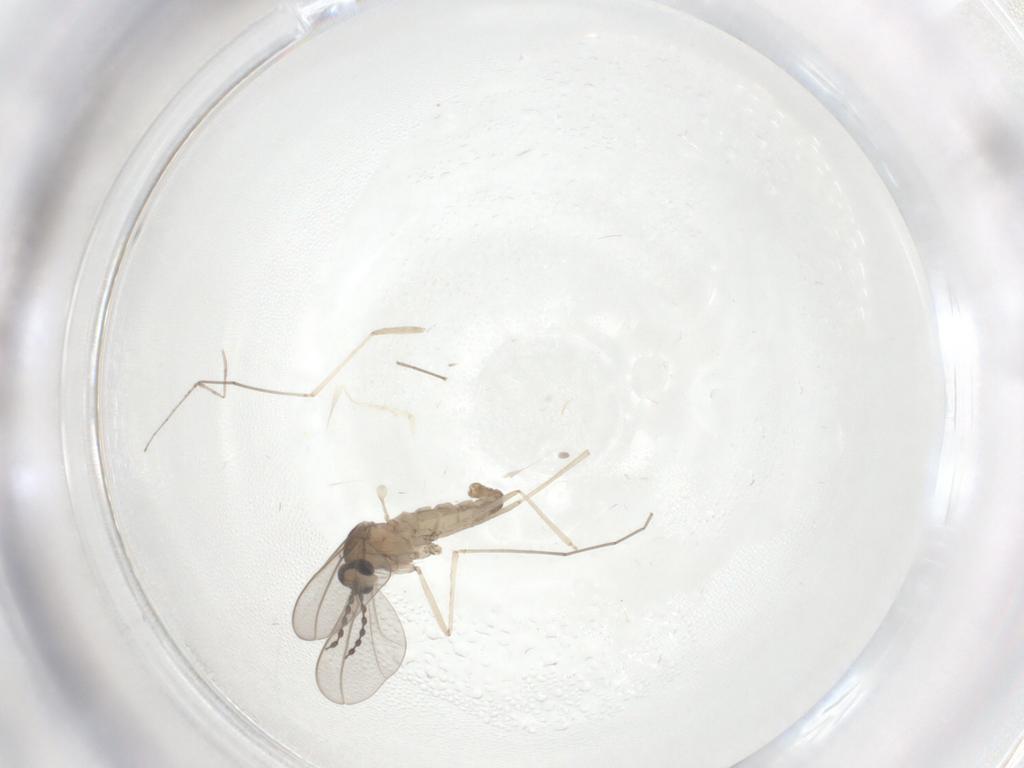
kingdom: Animalia
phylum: Arthropoda
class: Insecta
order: Diptera
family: Cecidomyiidae
